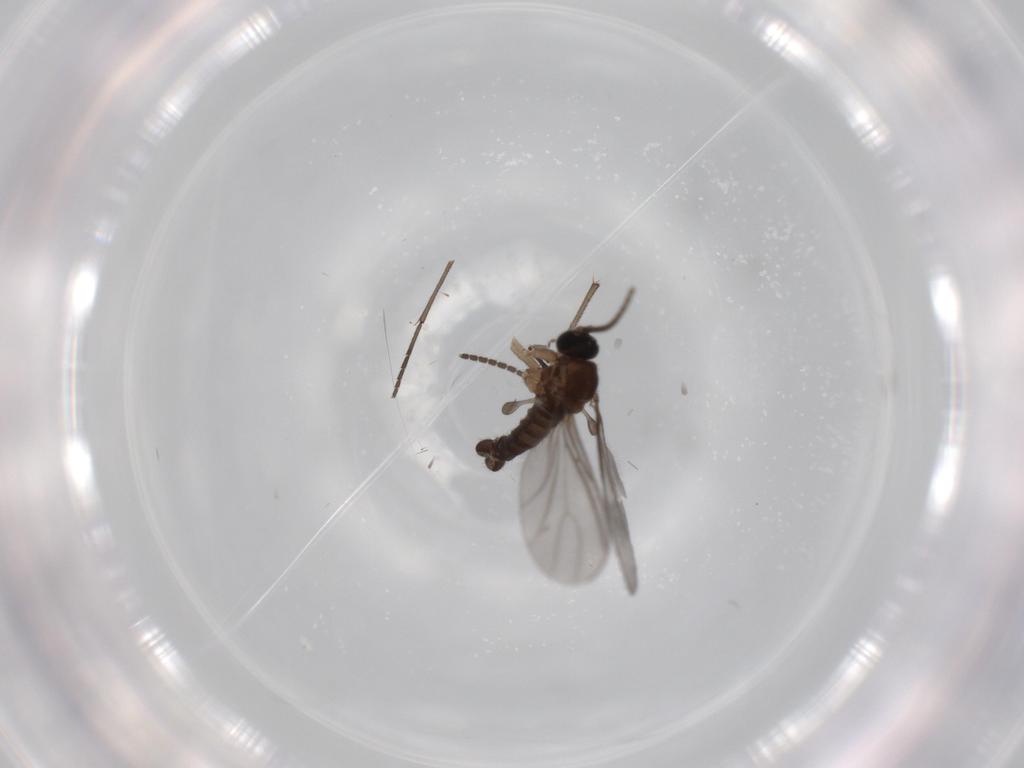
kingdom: Animalia
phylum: Arthropoda
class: Insecta
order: Diptera
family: Sciaridae
